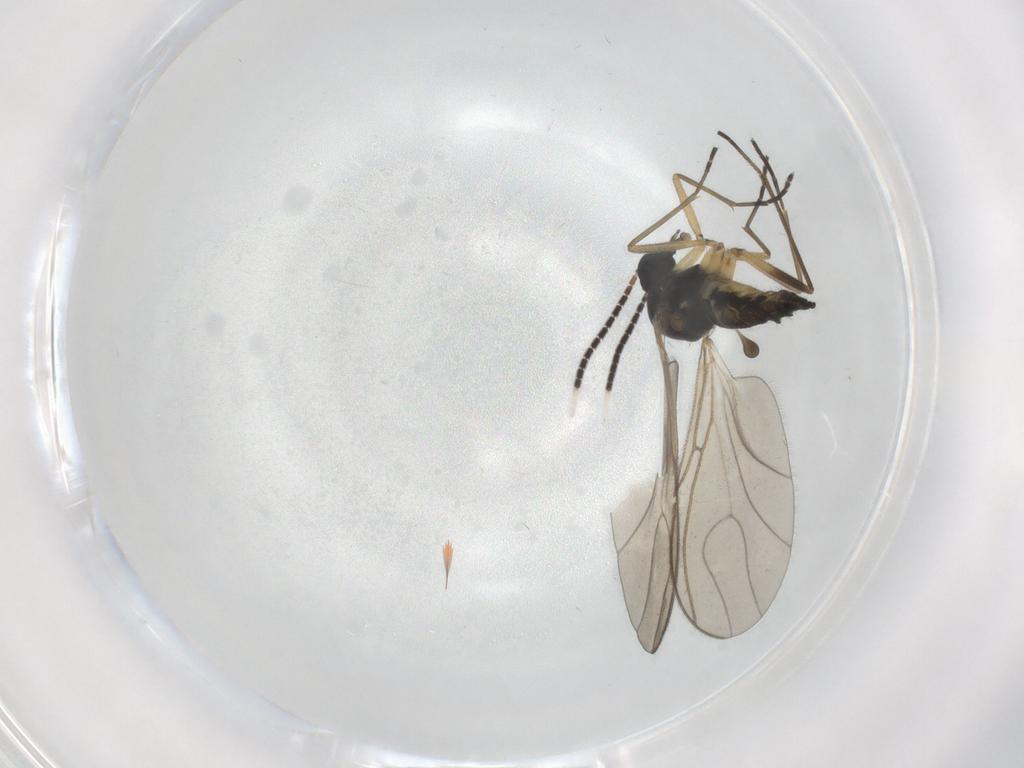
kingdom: Animalia
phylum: Arthropoda
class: Insecta
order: Diptera
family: Sciaridae
